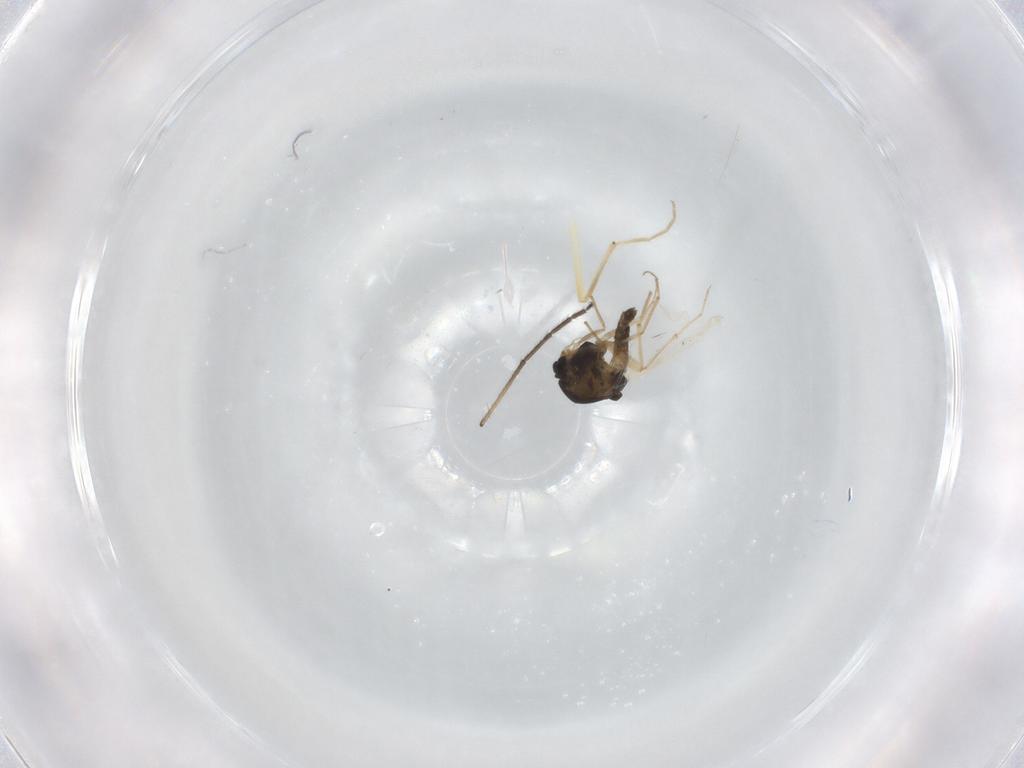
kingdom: Animalia
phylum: Arthropoda
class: Insecta
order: Diptera
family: Chironomidae
